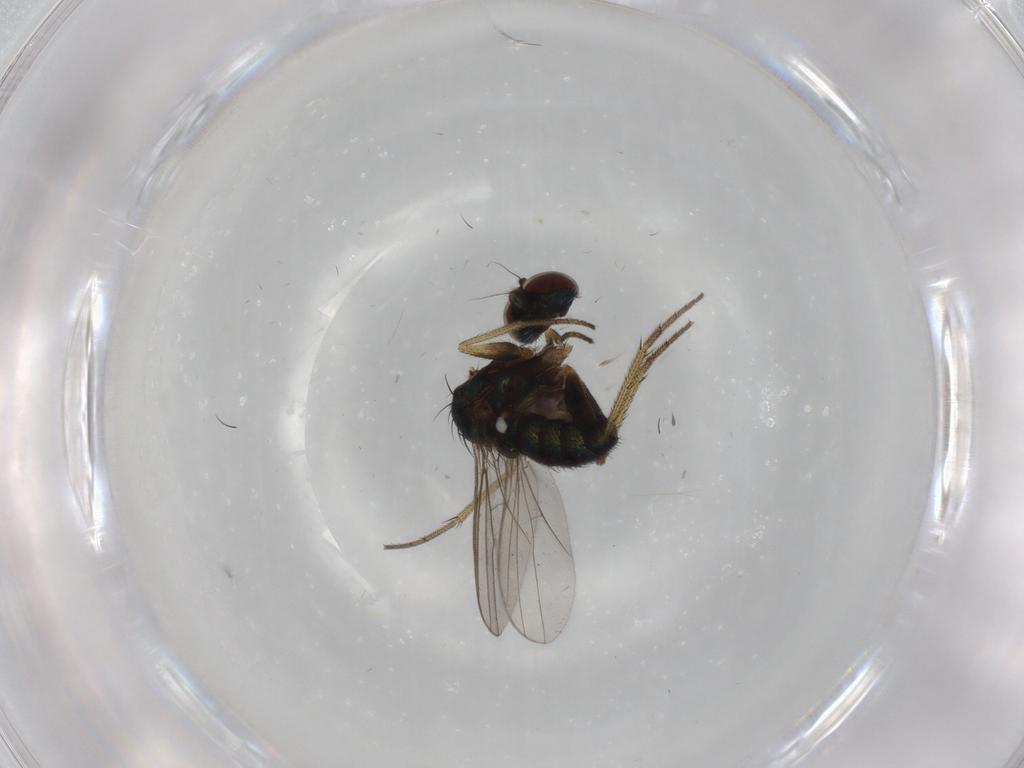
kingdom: Animalia
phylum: Arthropoda
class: Insecta
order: Diptera
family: Dolichopodidae
